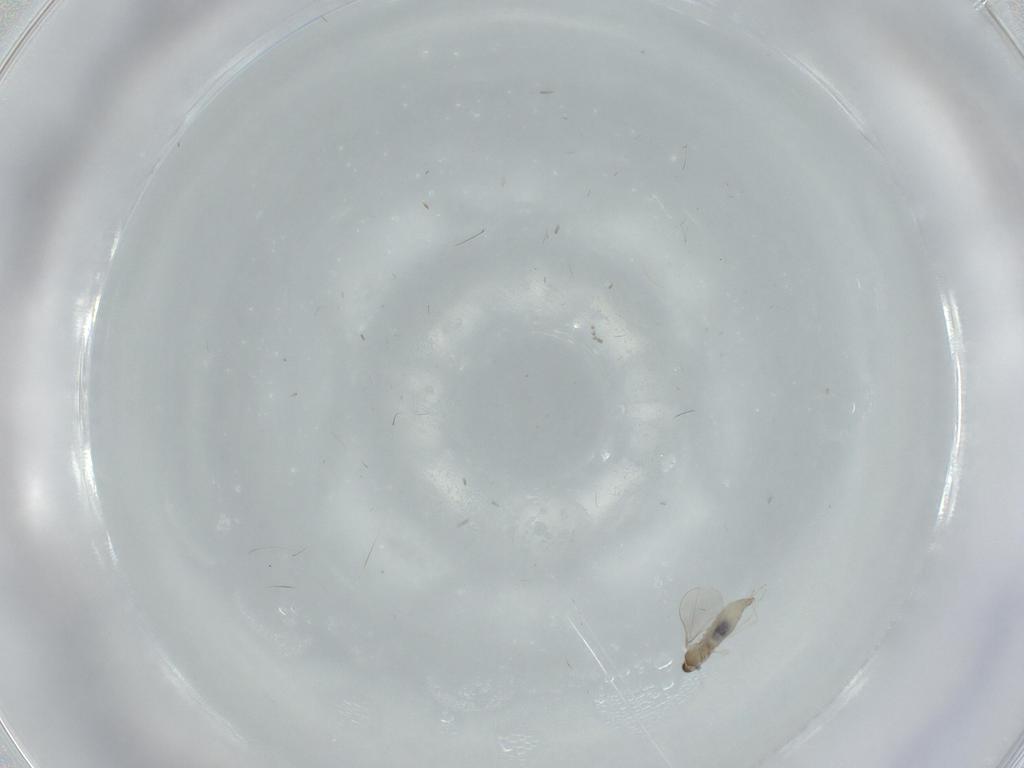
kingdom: Animalia
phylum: Arthropoda
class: Insecta
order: Diptera
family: Cecidomyiidae
